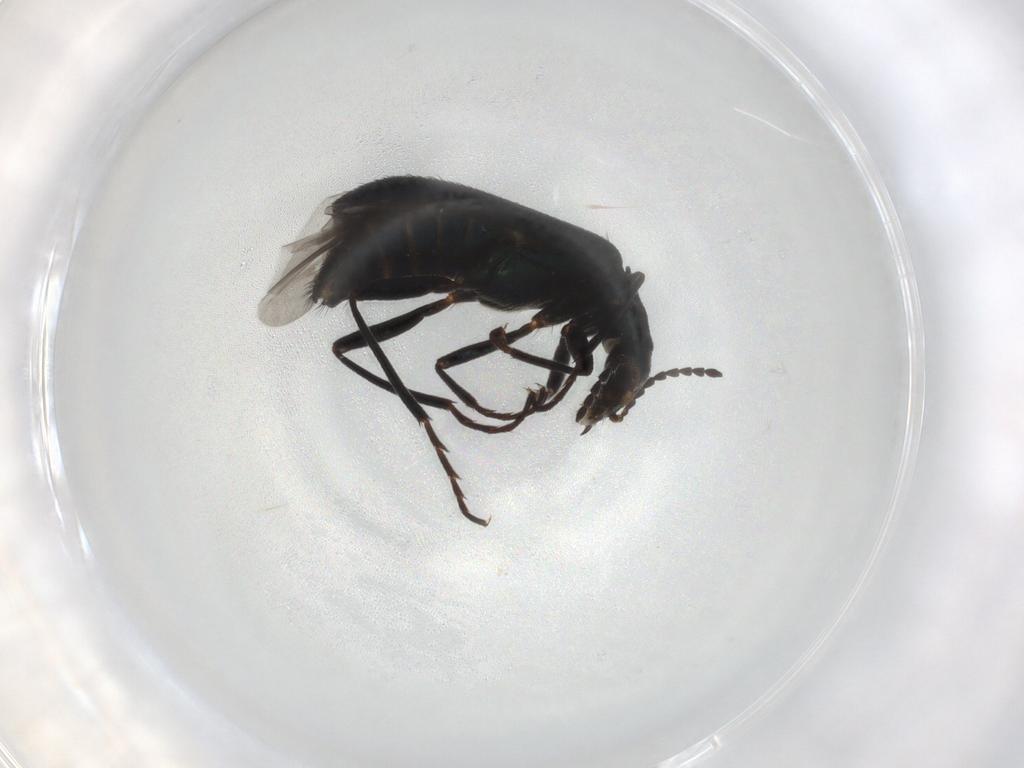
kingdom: Animalia
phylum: Arthropoda
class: Insecta
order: Coleoptera
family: Melyridae
